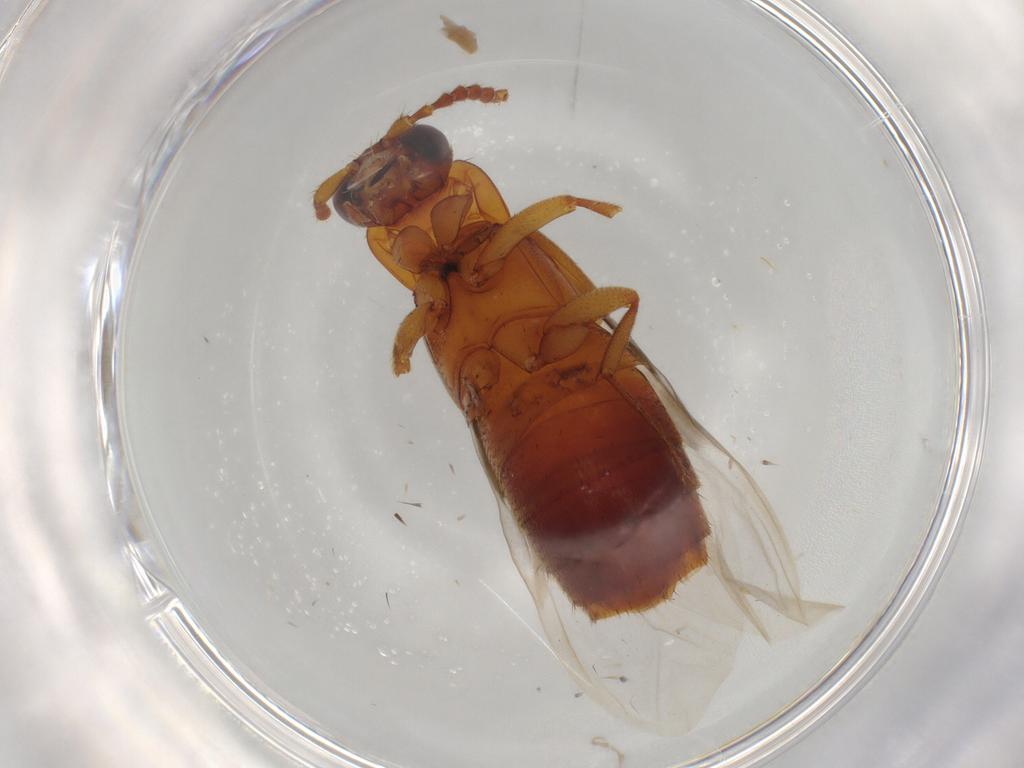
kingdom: Animalia
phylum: Arthropoda
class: Insecta
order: Coleoptera
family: Staphylinidae
